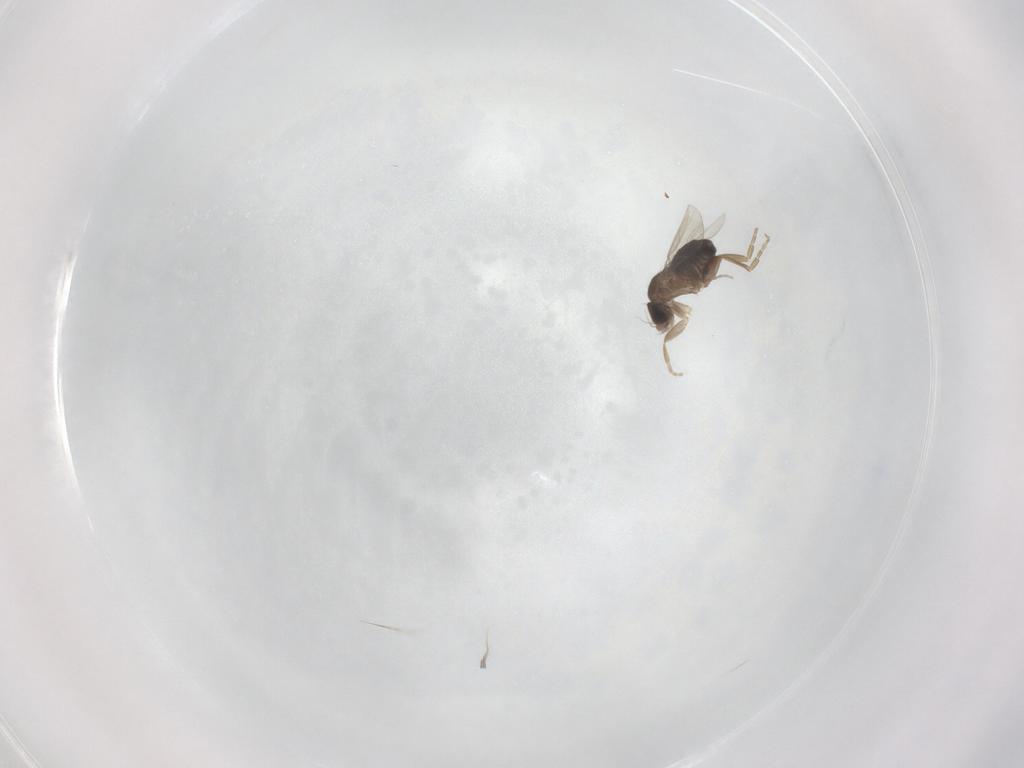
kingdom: Animalia
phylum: Arthropoda
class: Insecta
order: Diptera
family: Phoridae
